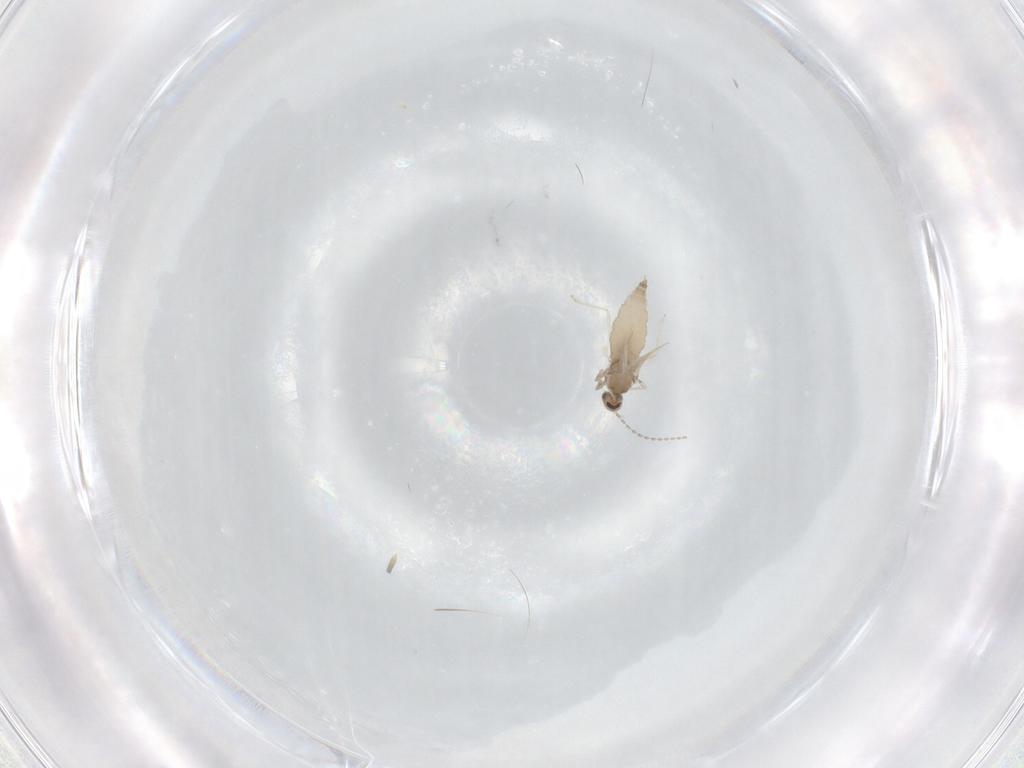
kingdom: Animalia
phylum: Arthropoda
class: Insecta
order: Diptera
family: Cecidomyiidae
